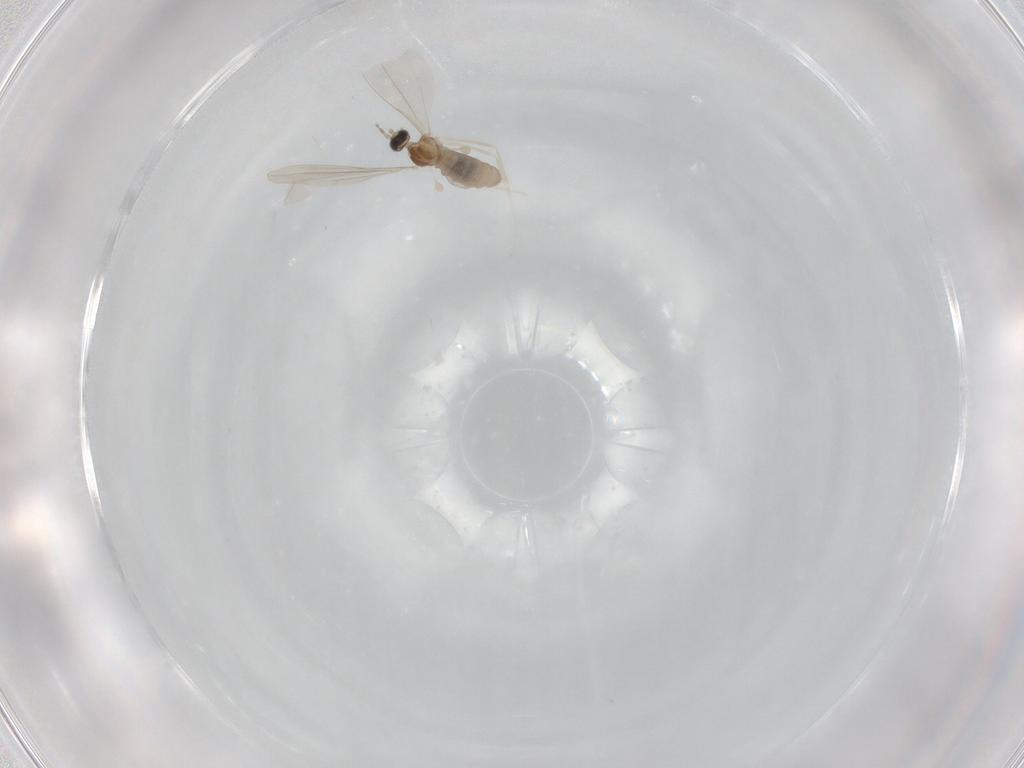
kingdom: Animalia
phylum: Arthropoda
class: Insecta
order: Diptera
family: Cecidomyiidae
